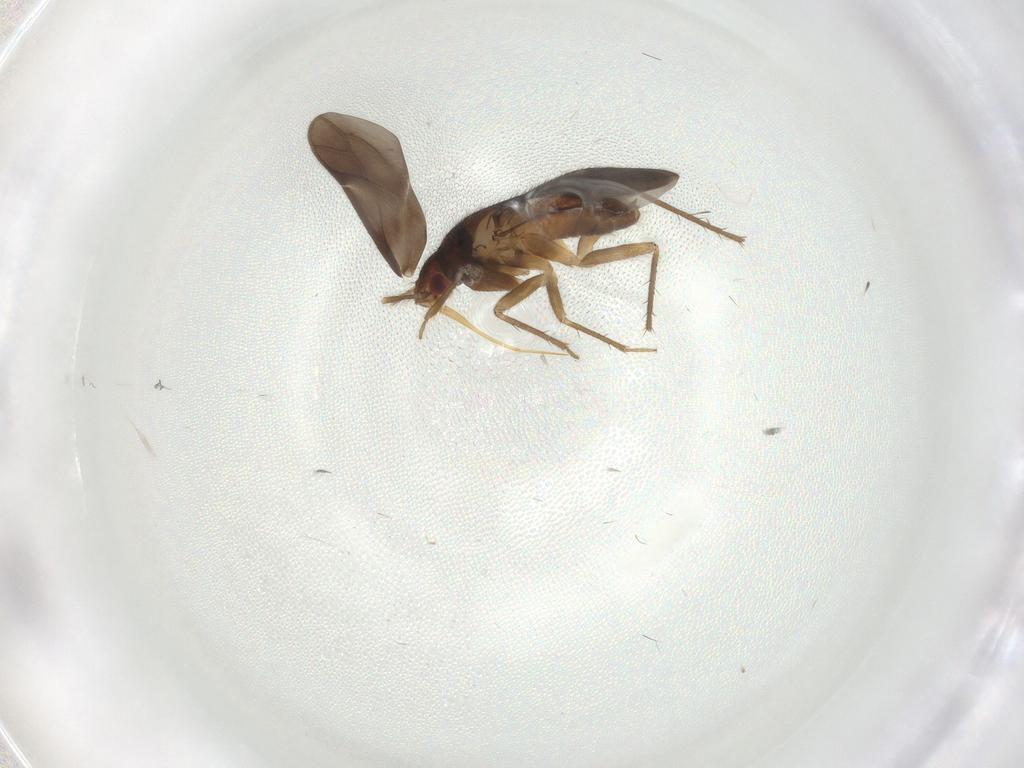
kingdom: Animalia
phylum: Arthropoda
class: Insecta
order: Hemiptera
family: Ceratocombidae
